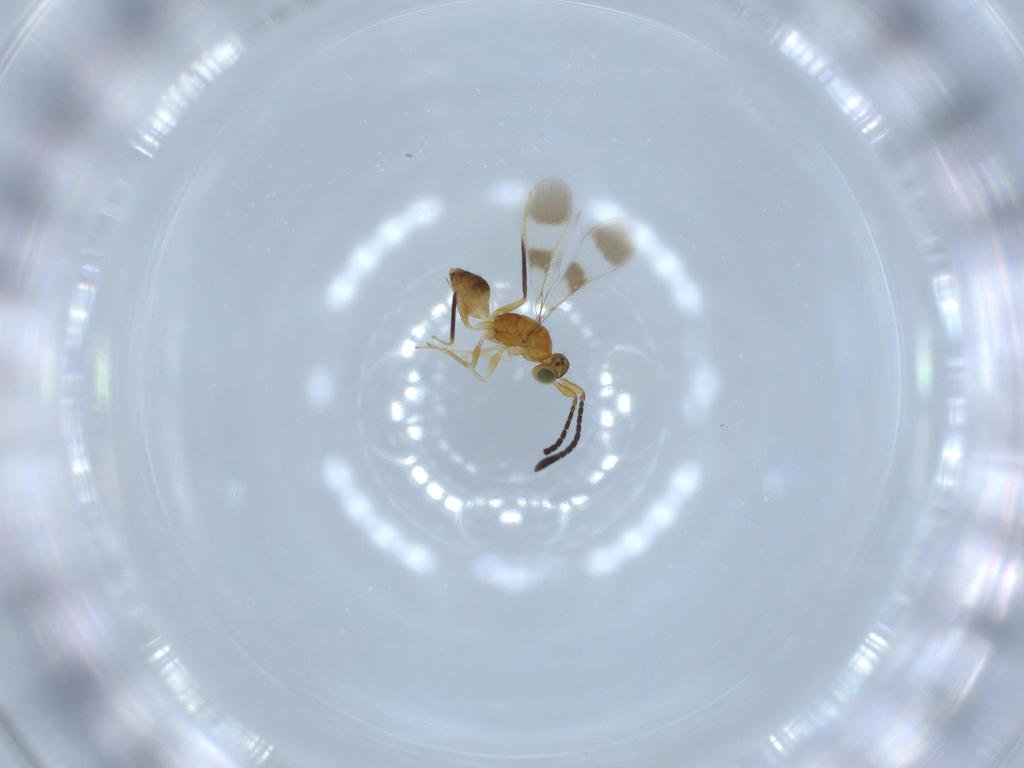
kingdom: Animalia
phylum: Arthropoda
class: Insecta
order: Hymenoptera
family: Mymaridae
